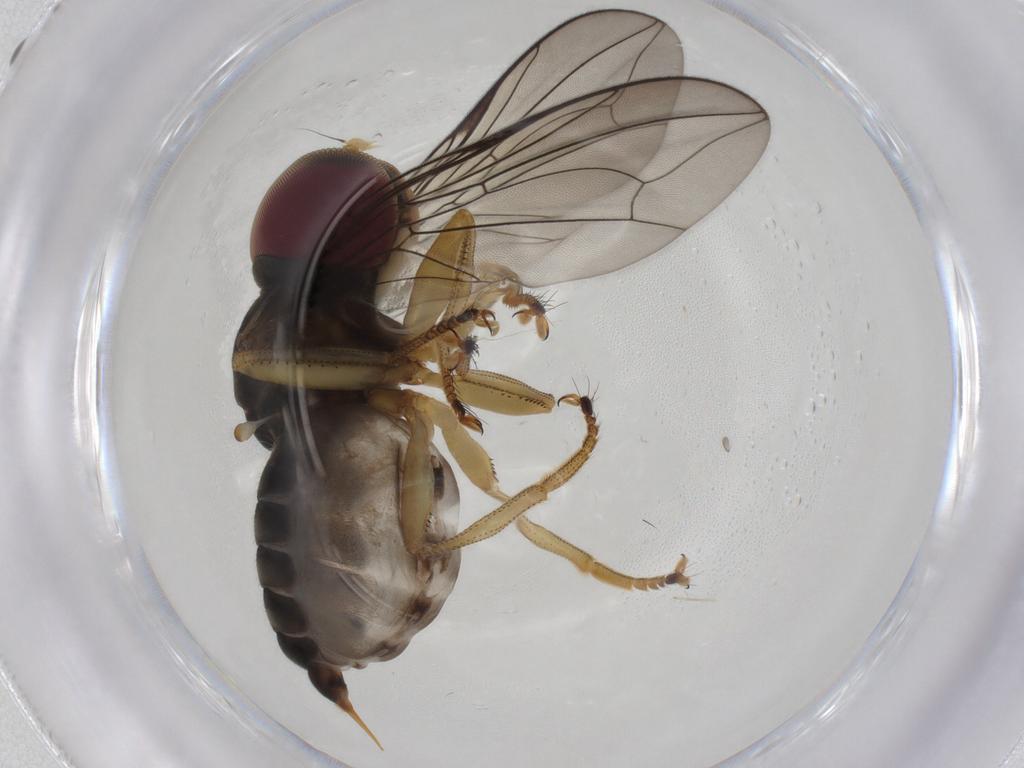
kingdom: Animalia
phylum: Arthropoda
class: Insecta
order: Diptera
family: Pipunculidae
